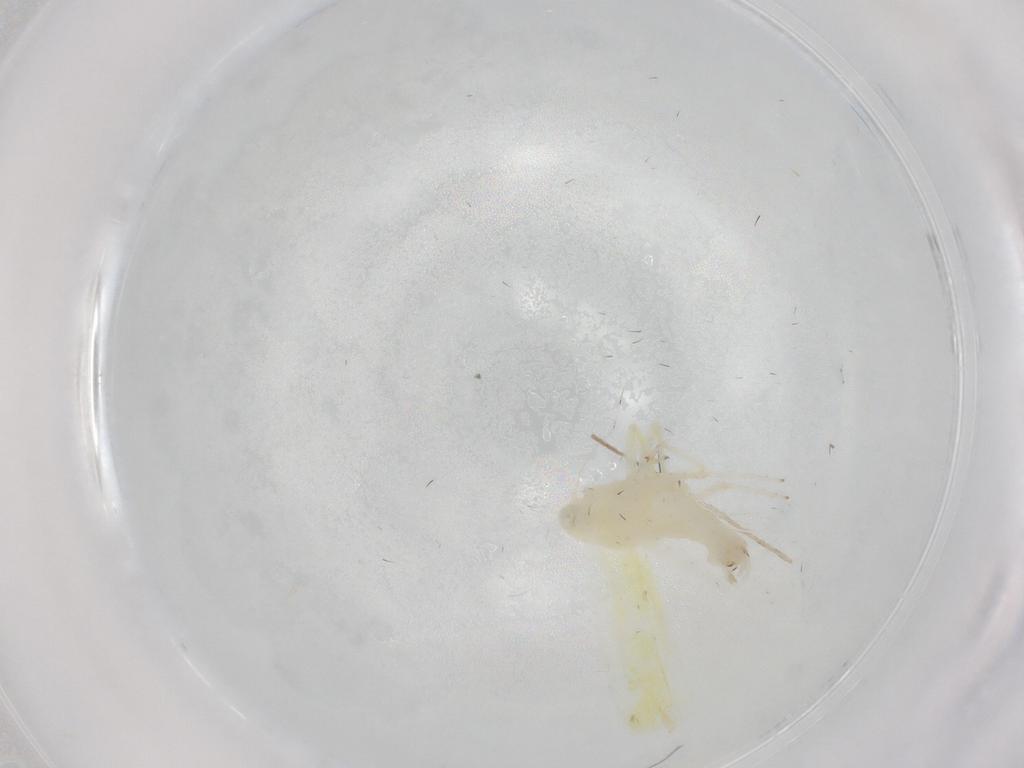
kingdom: Animalia
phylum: Arthropoda
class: Insecta
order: Hemiptera
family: Cicadellidae
